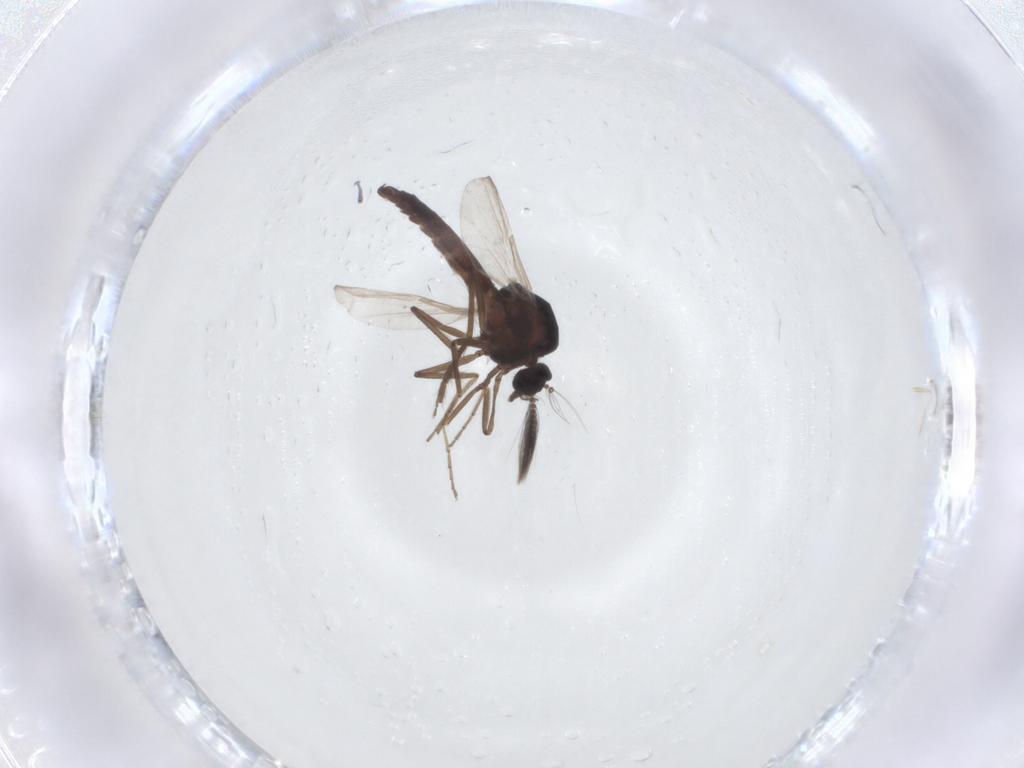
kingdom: Animalia
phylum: Arthropoda
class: Insecta
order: Diptera
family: Ceratopogonidae
